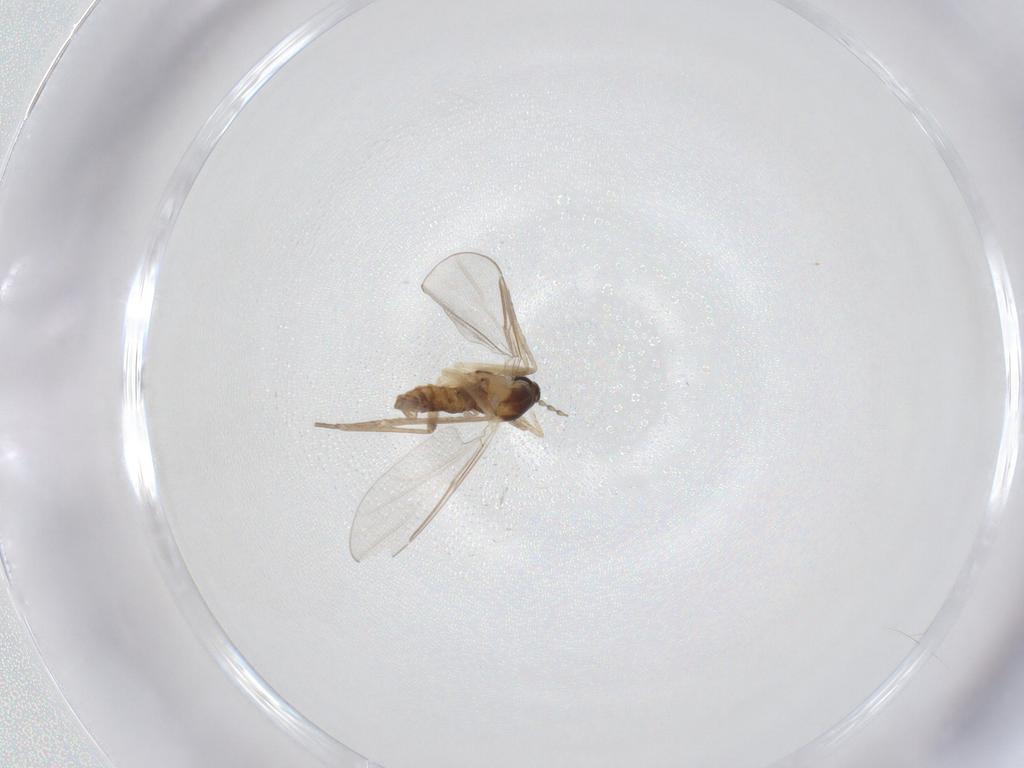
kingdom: Animalia
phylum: Arthropoda
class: Insecta
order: Diptera
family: Cecidomyiidae
